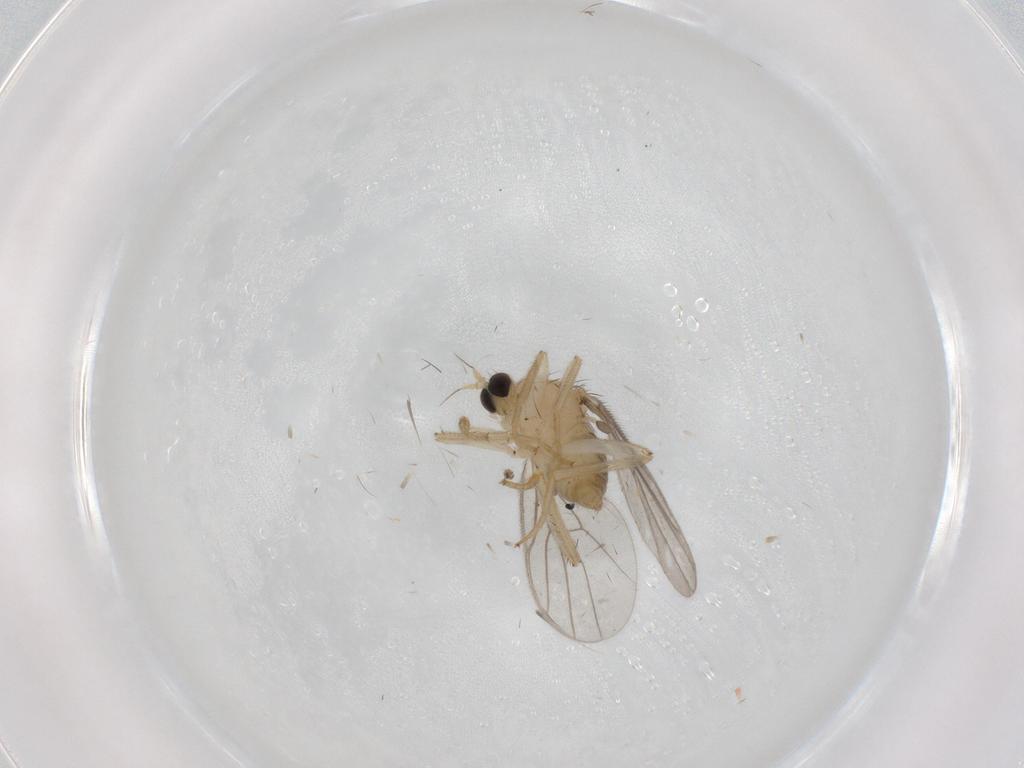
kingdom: Animalia
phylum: Arthropoda
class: Insecta
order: Diptera
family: Hybotidae
